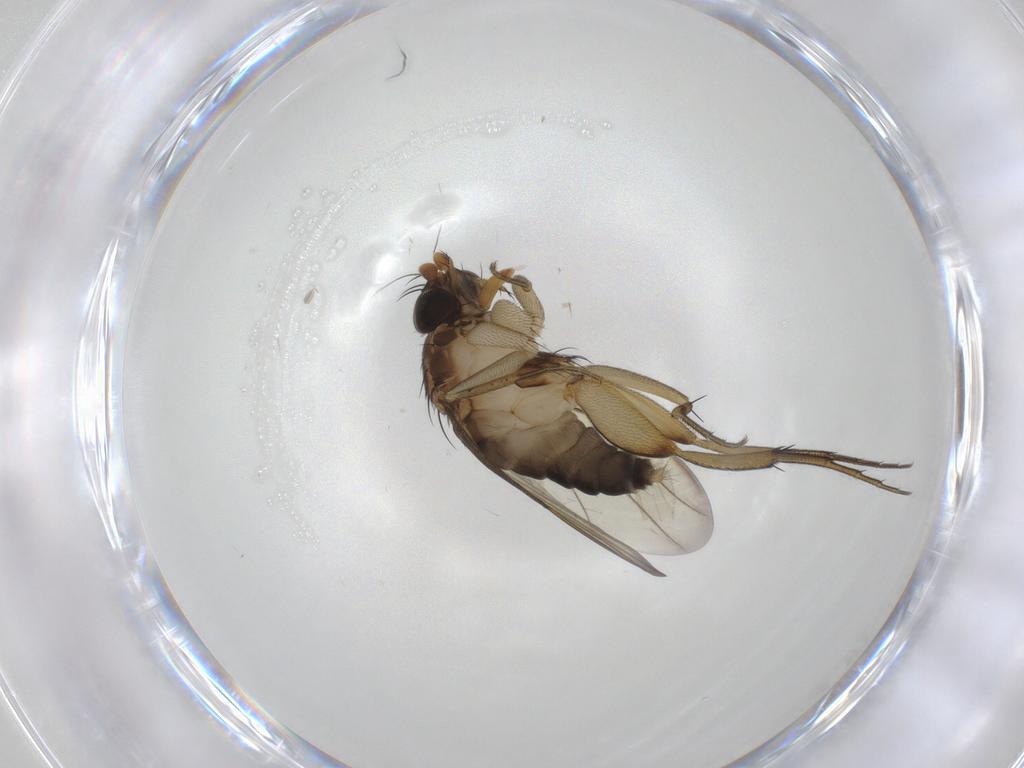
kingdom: Animalia
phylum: Arthropoda
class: Insecta
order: Diptera
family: Phoridae
